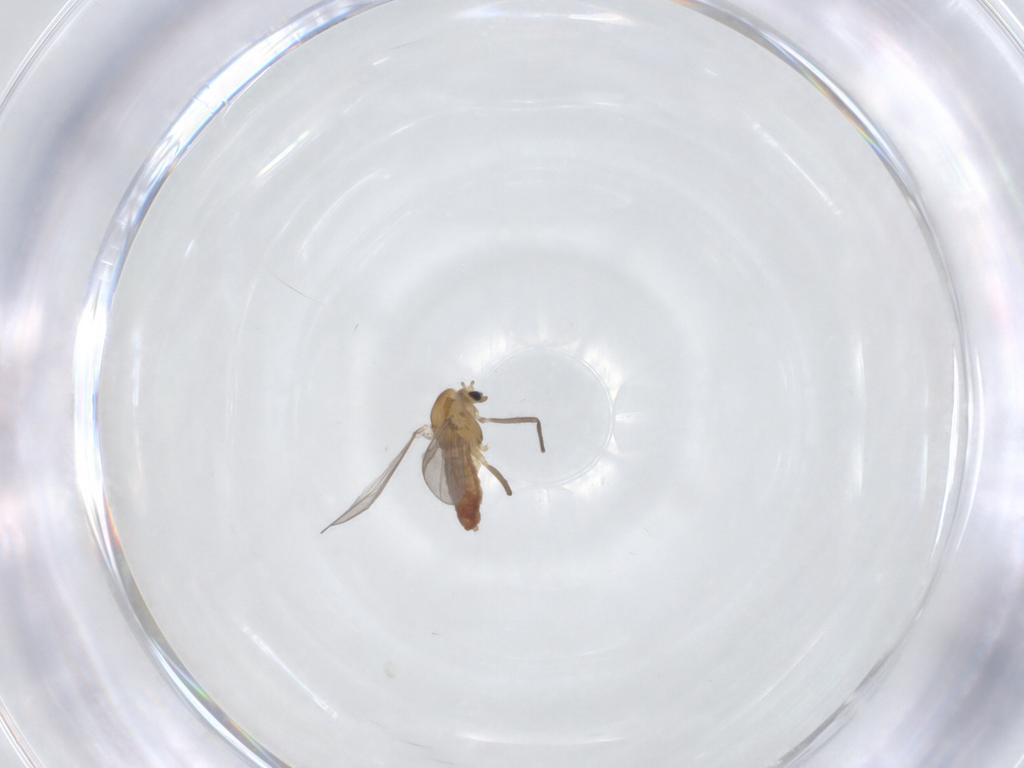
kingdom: Animalia
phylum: Arthropoda
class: Insecta
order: Diptera
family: Chironomidae
